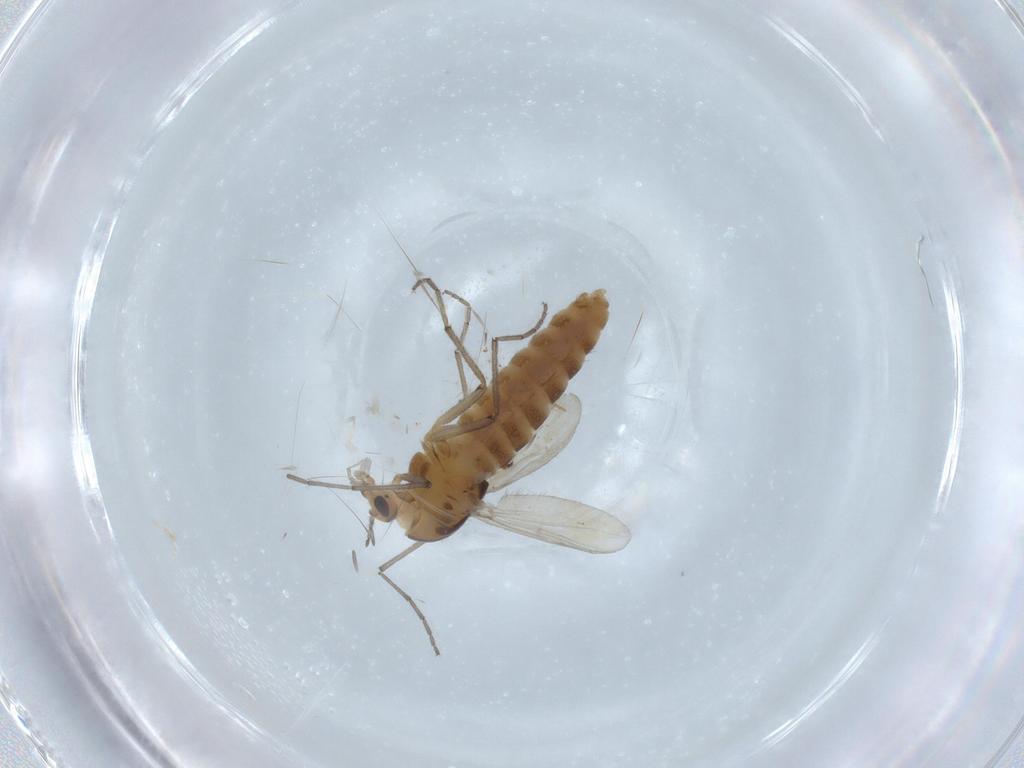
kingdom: Animalia
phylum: Arthropoda
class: Insecta
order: Diptera
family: Chironomidae
